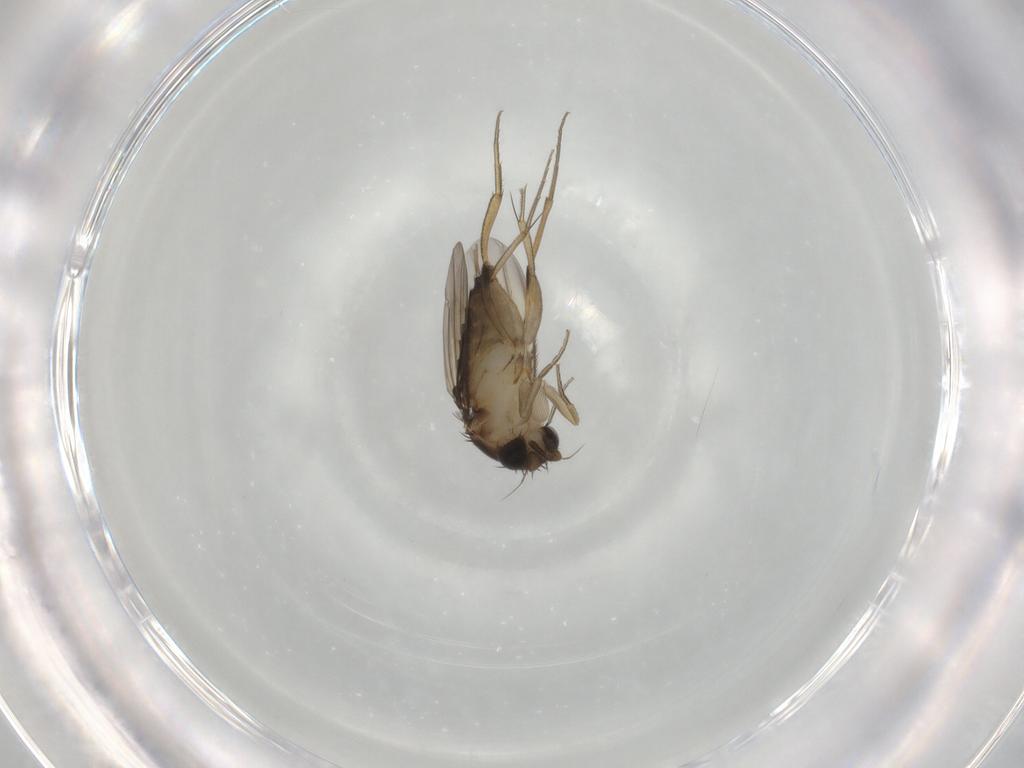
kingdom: Animalia
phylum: Arthropoda
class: Insecta
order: Diptera
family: Phoridae
